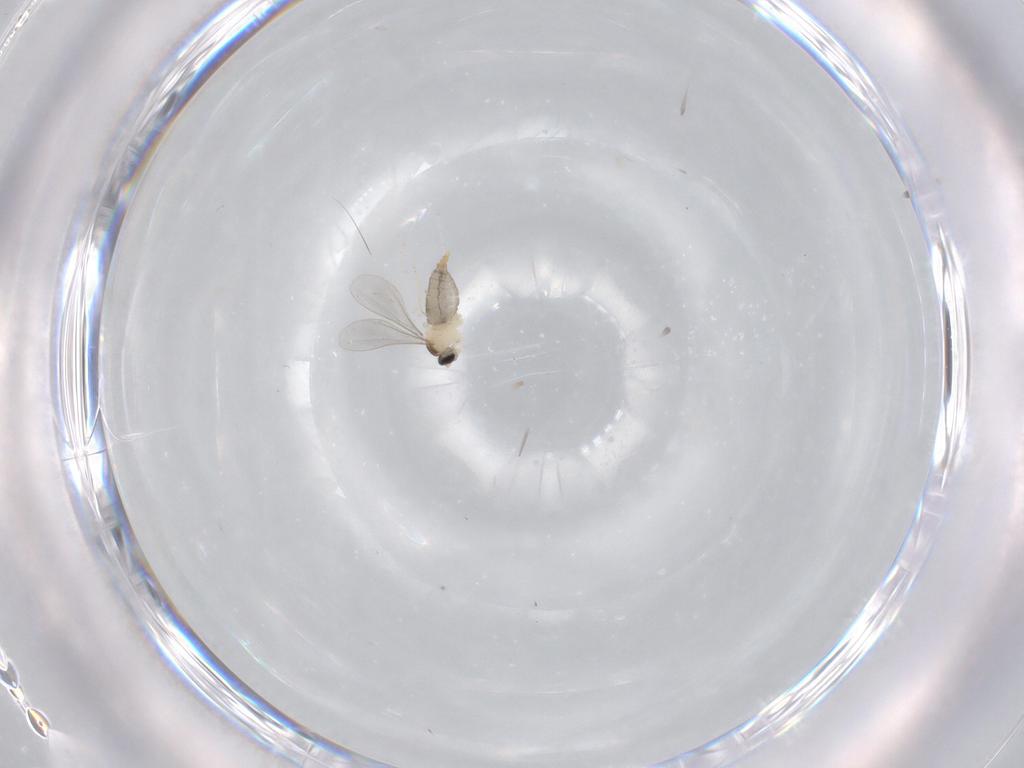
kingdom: Animalia
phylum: Arthropoda
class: Insecta
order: Diptera
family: Cecidomyiidae
